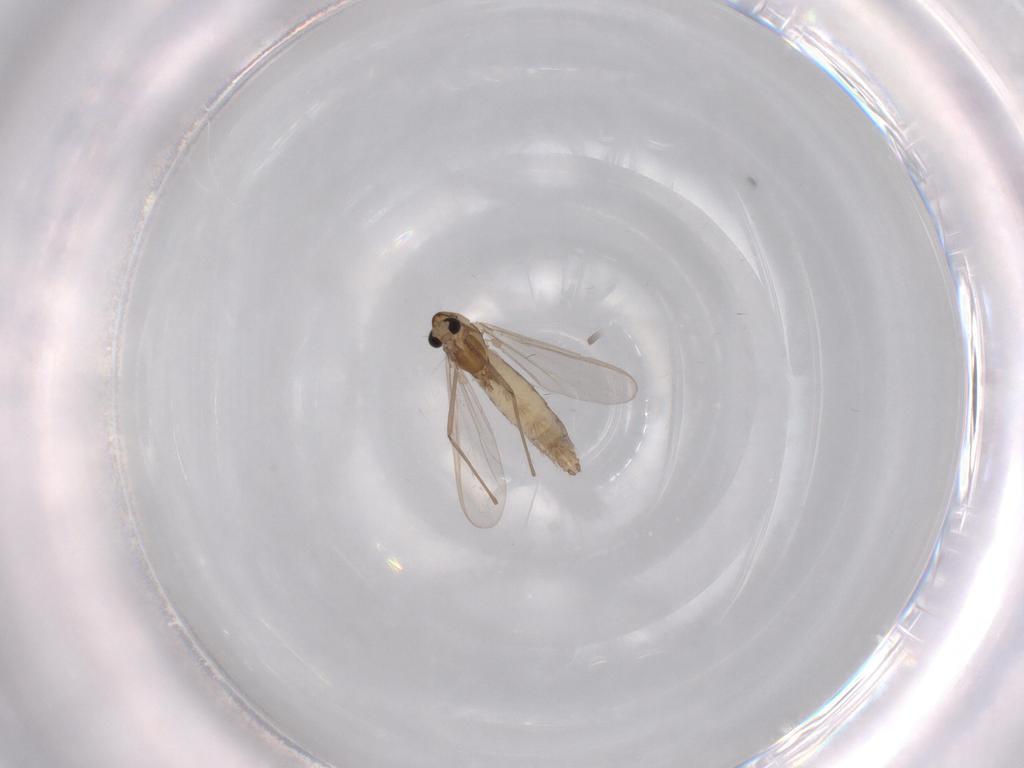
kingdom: Animalia
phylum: Arthropoda
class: Insecta
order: Diptera
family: Chironomidae
